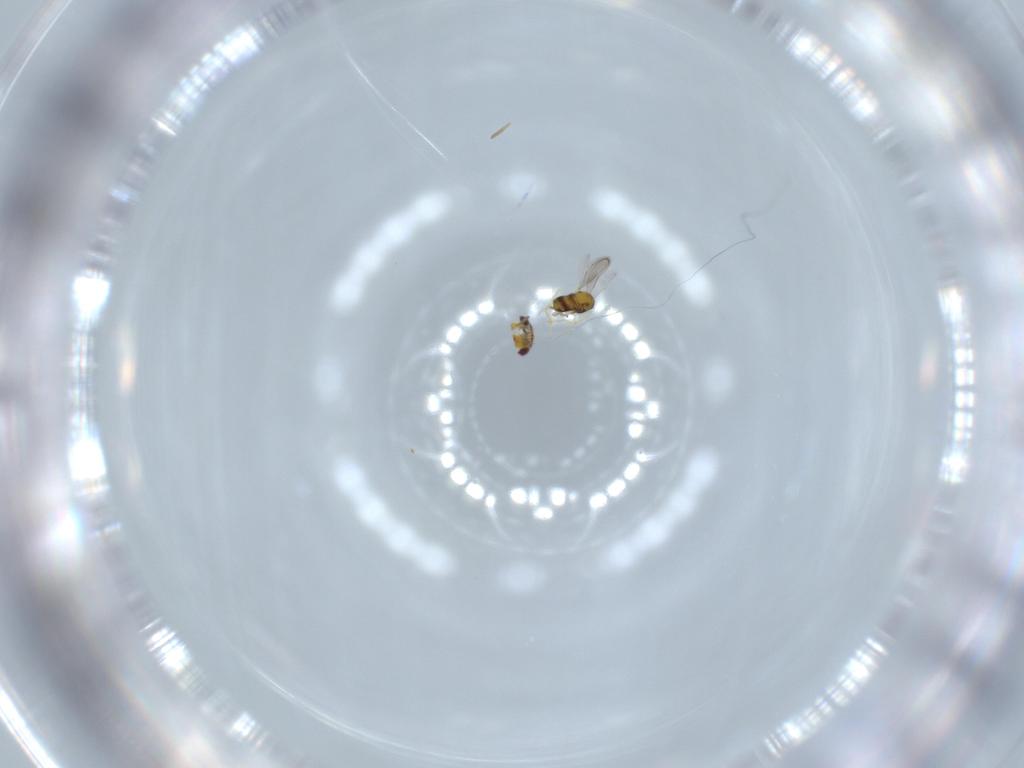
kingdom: Animalia
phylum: Arthropoda
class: Insecta
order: Hymenoptera
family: Aphelinidae
